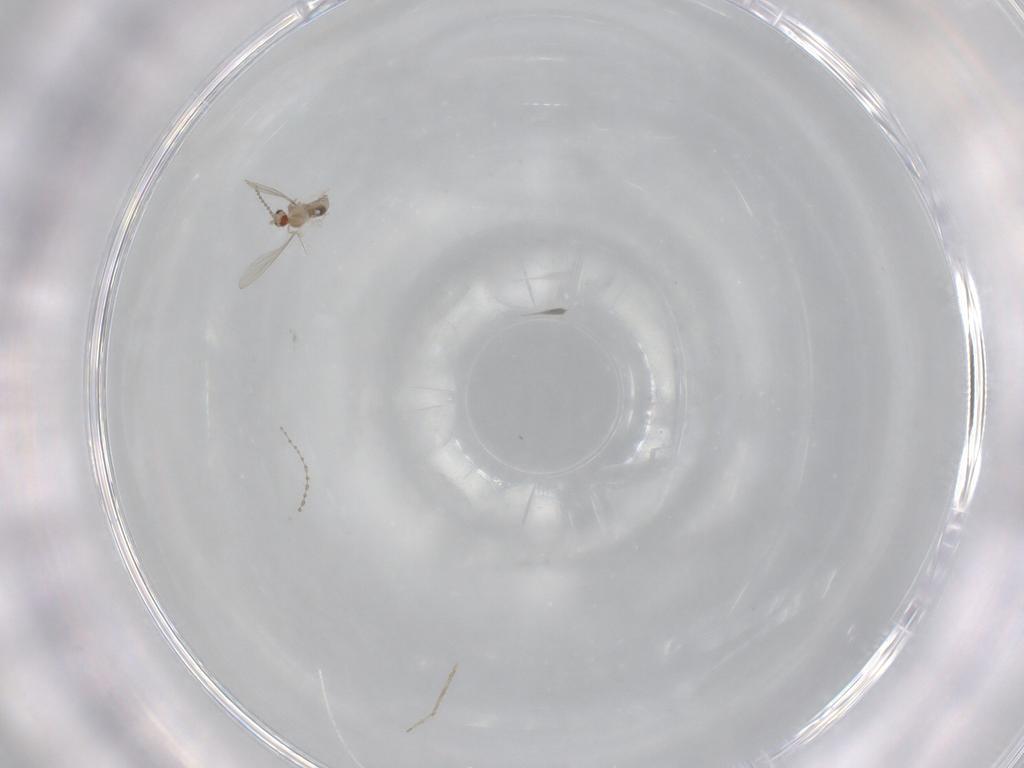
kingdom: Animalia
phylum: Arthropoda
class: Insecta
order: Diptera
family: Cecidomyiidae
